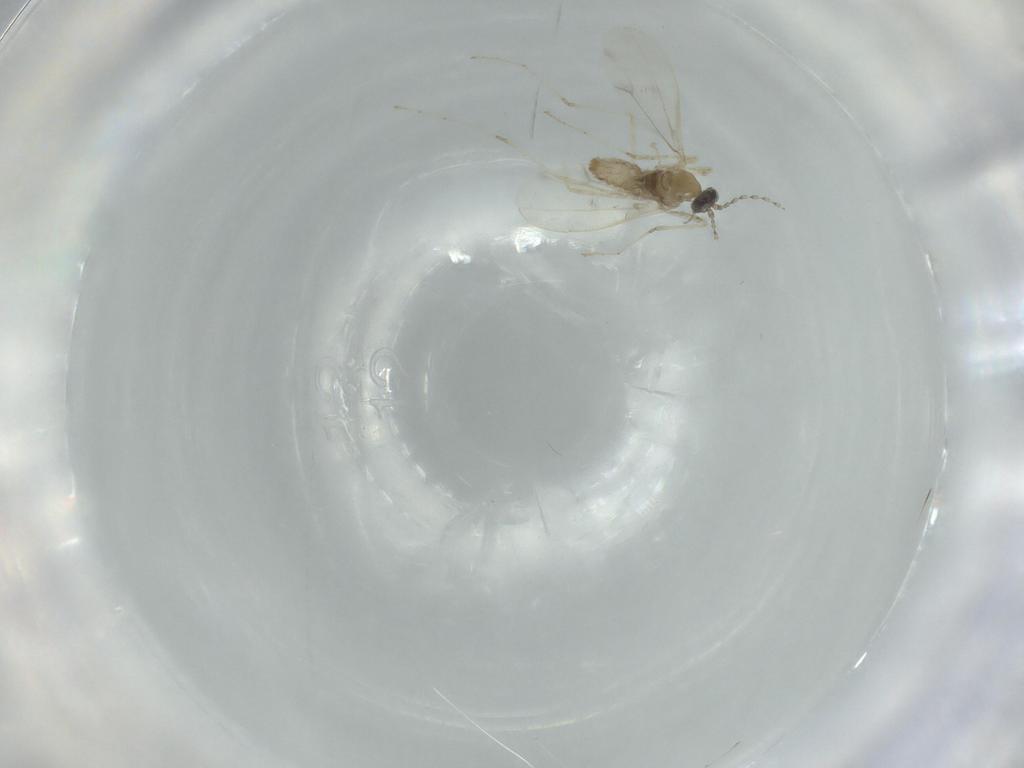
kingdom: Animalia
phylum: Arthropoda
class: Insecta
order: Diptera
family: Cecidomyiidae
